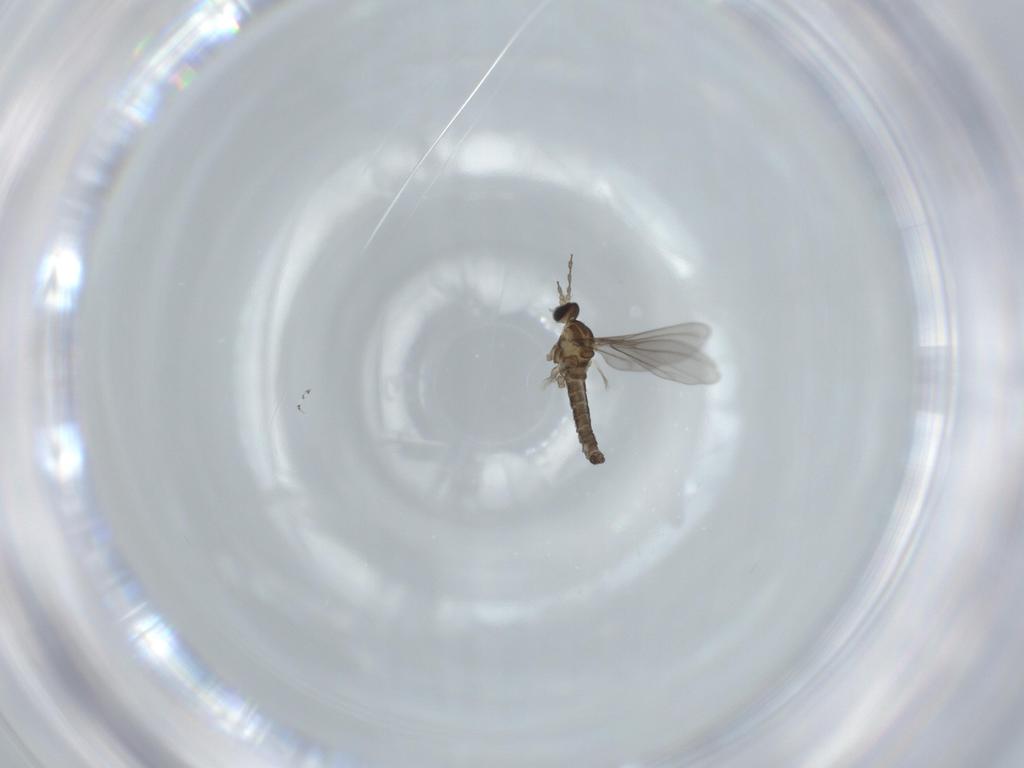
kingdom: Animalia
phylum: Arthropoda
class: Insecta
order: Diptera
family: Cecidomyiidae
